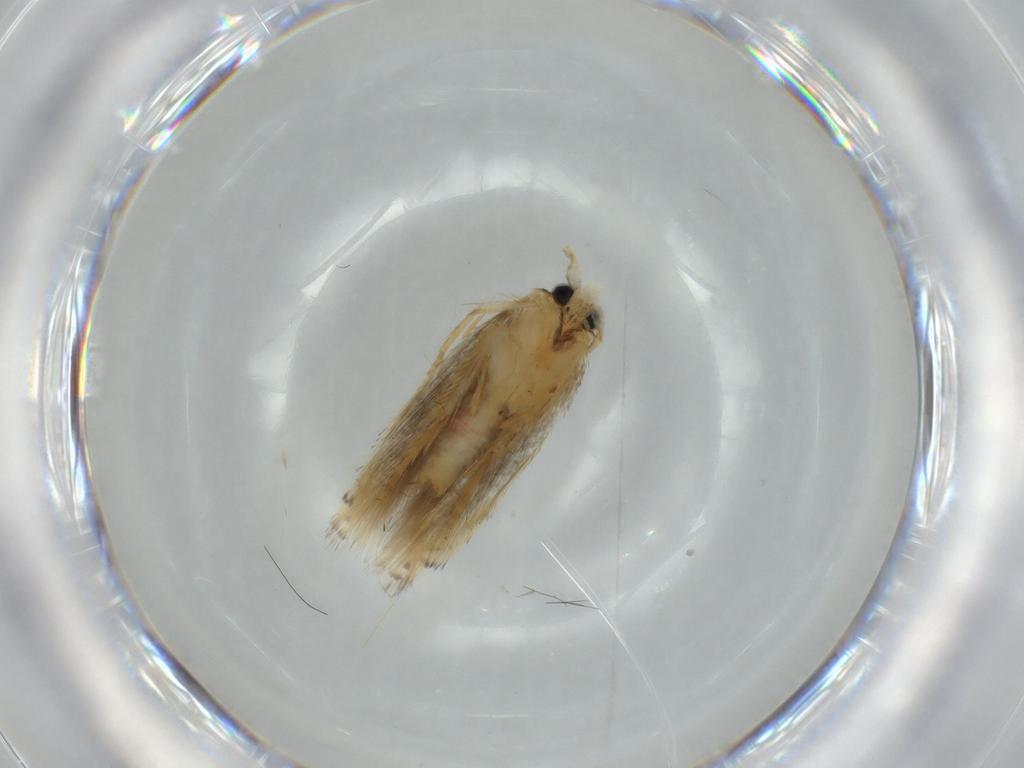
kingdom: Animalia
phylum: Arthropoda
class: Insecta
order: Lepidoptera
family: Opostegidae
